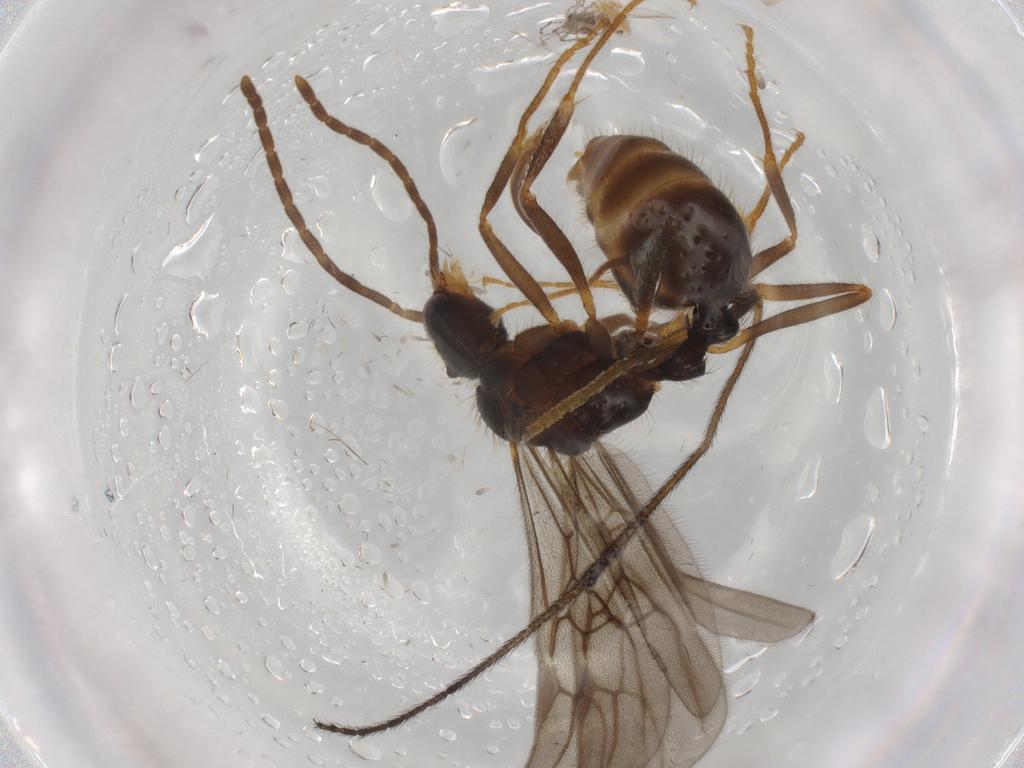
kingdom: Animalia
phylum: Arthropoda
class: Insecta
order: Hymenoptera
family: Formicidae
